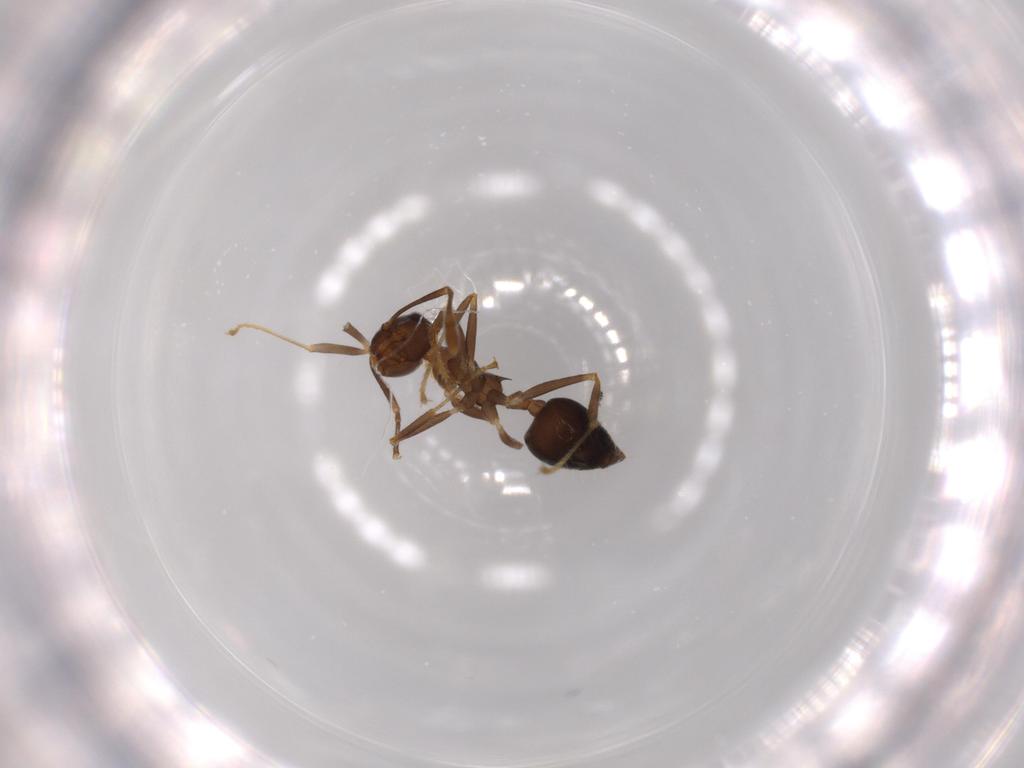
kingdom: Animalia
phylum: Arthropoda
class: Insecta
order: Hymenoptera
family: Formicidae
